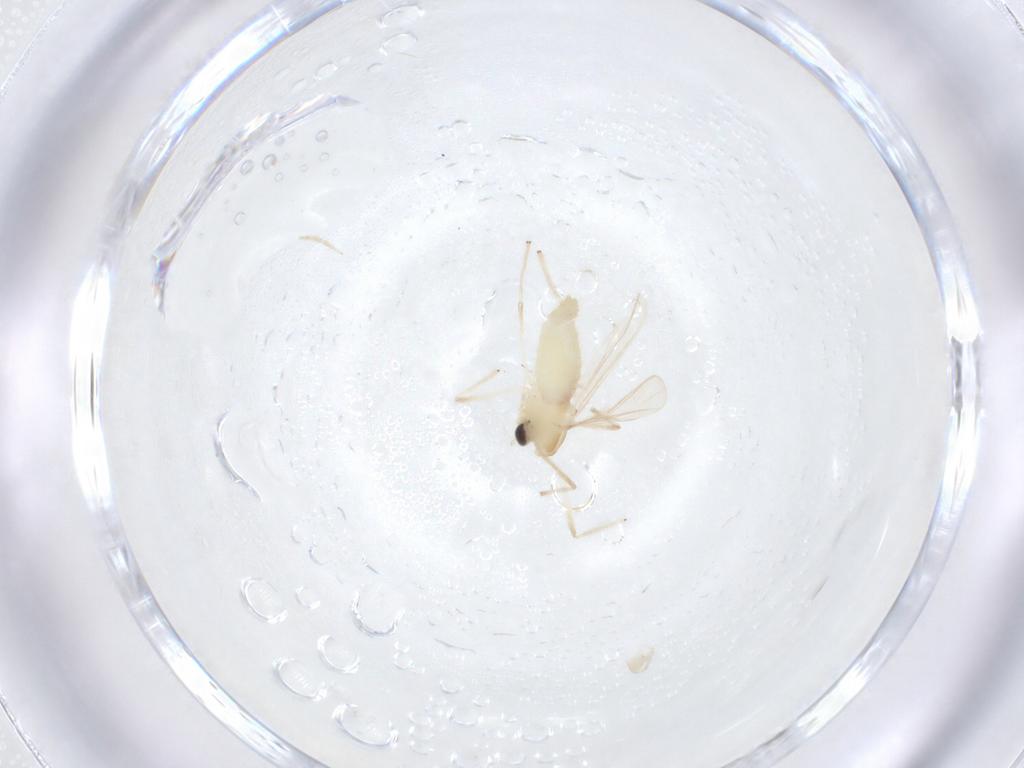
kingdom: Animalia
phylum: Arthropoda
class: Insecta
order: Diptera
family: Chironomidae
